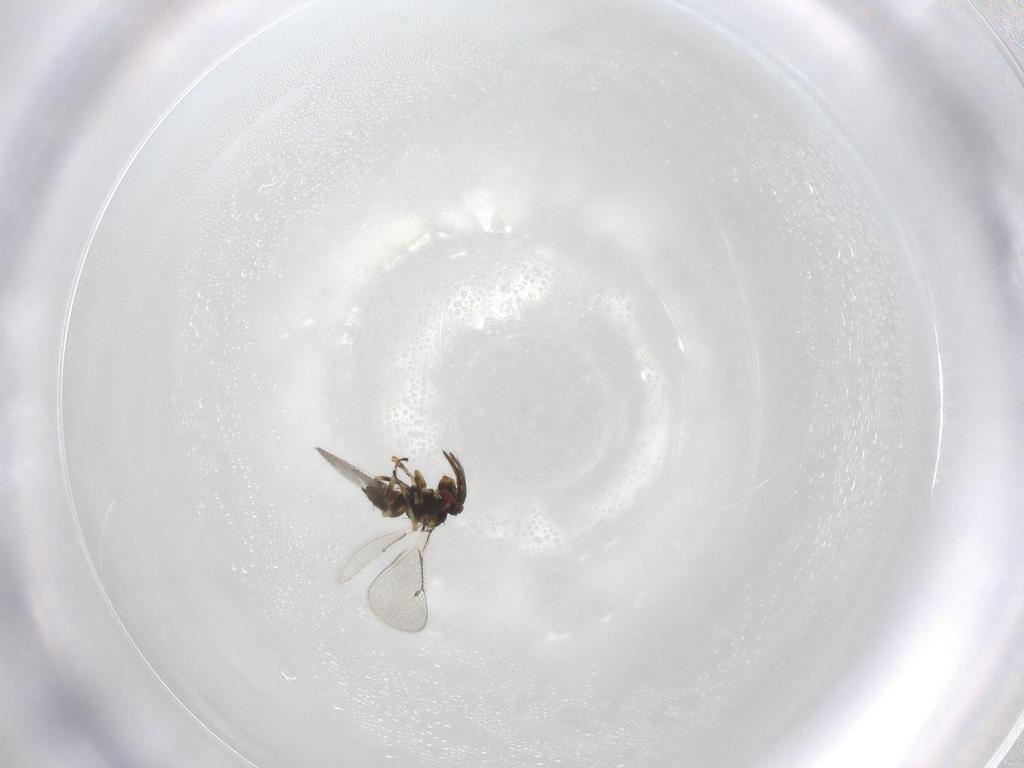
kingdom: Animalia
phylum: Arthropoda
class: Insecta
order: Hymenoptera
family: Eulophidae
